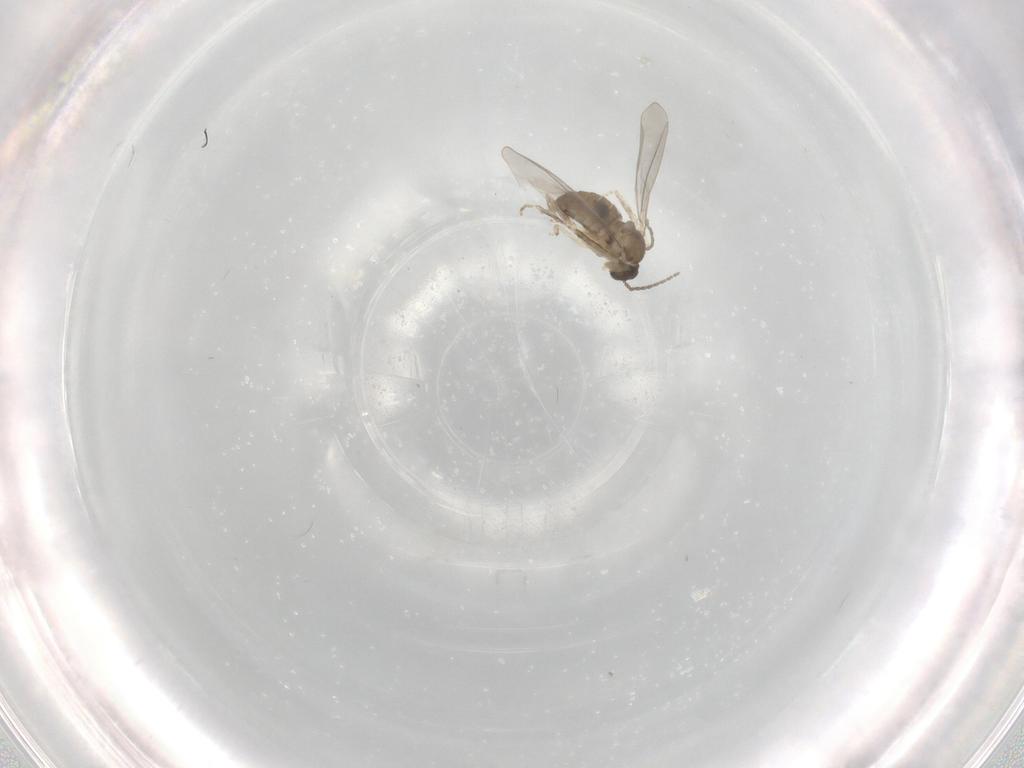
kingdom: Animalia
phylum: Arthropoda
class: Insecta
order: Diptera
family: Cecidomyiidae
